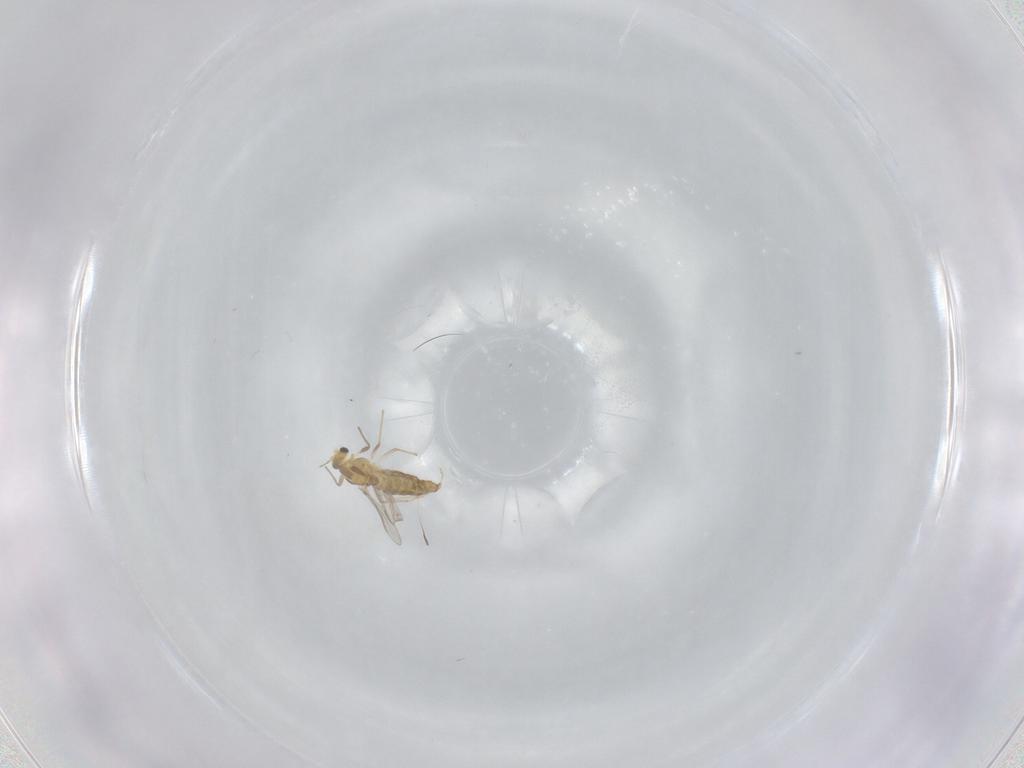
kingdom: Animalia
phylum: Arthropoda
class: Insecta
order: Diptera
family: Chironomidae
